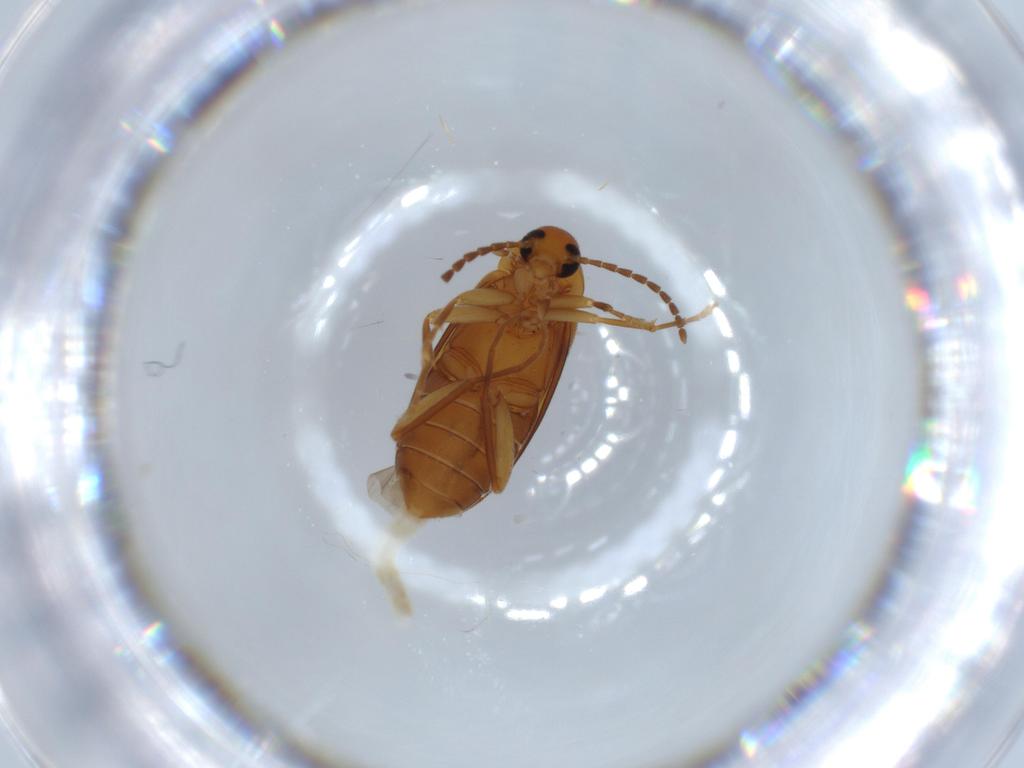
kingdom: Animalia
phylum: Arthropoda
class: Insecta
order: Coleoptera
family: Scraptiidae
